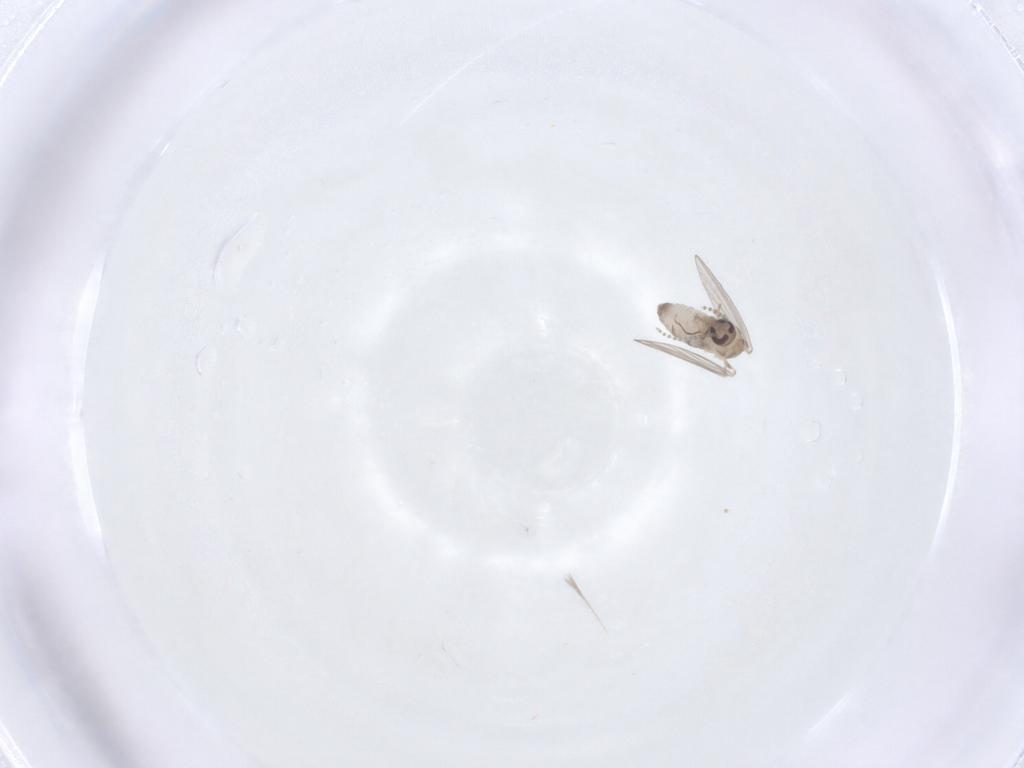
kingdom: Animalia
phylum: Arthropoda
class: Insecta
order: Diptera
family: Psychodidae
